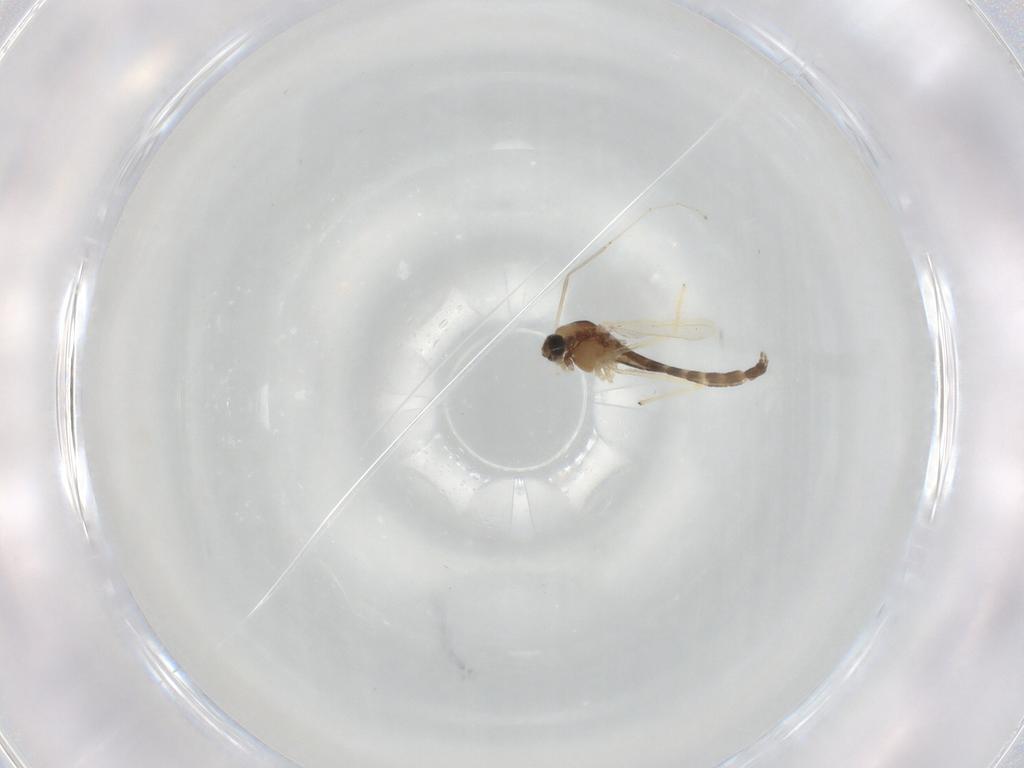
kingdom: Animalia
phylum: Arthropoda
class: Insecta
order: Diptera
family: Chironomidae
